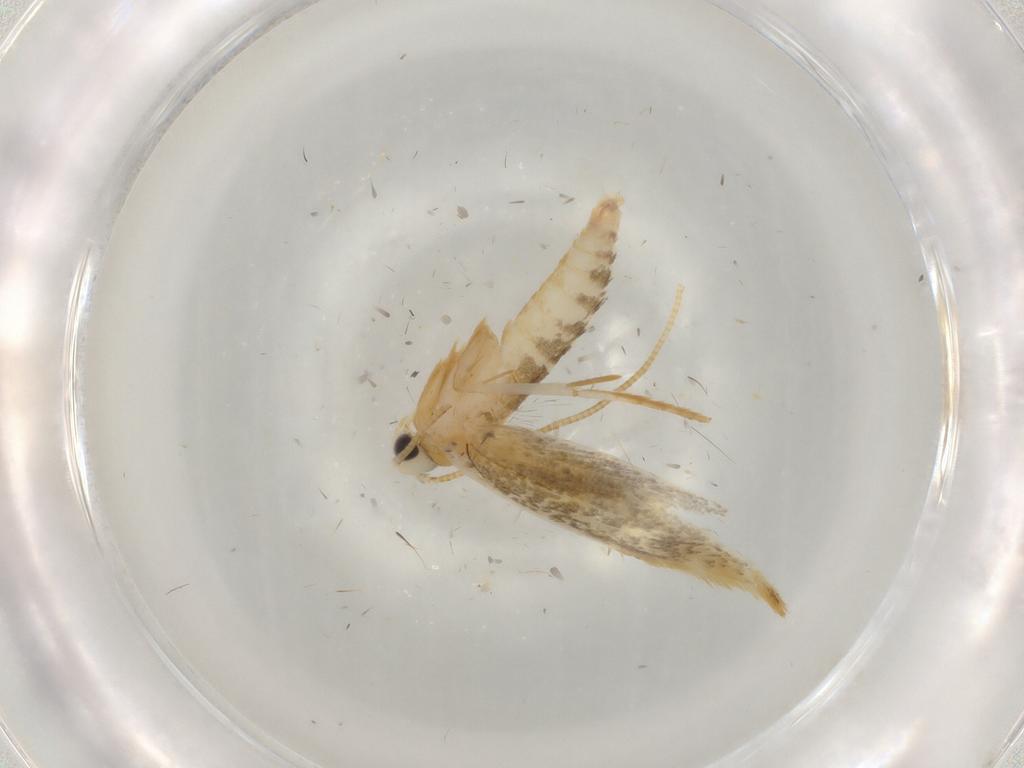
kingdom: Animalia
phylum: Arthropoda
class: Insecta
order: Lepidoptera
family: Tineidae
